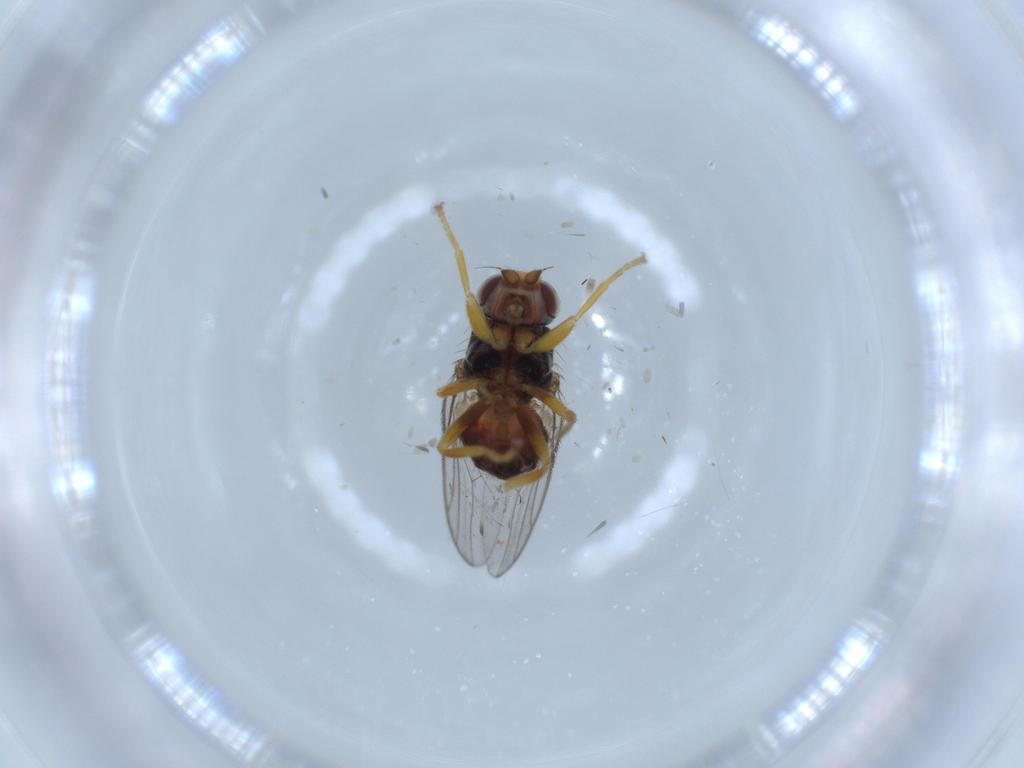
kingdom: Animalia
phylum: Arthropoda
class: Insecta
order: Diptera
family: Chloropidae
